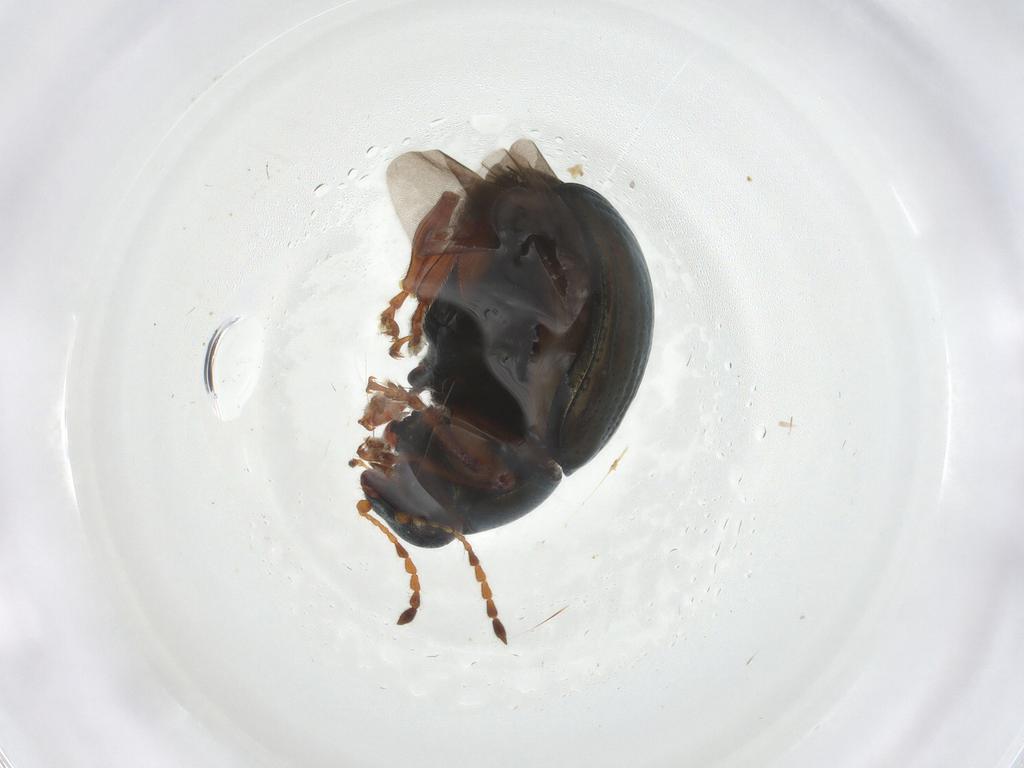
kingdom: Animalia
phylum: Arthropoda
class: Insecta
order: Coleoptera
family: Chrysomelidae
